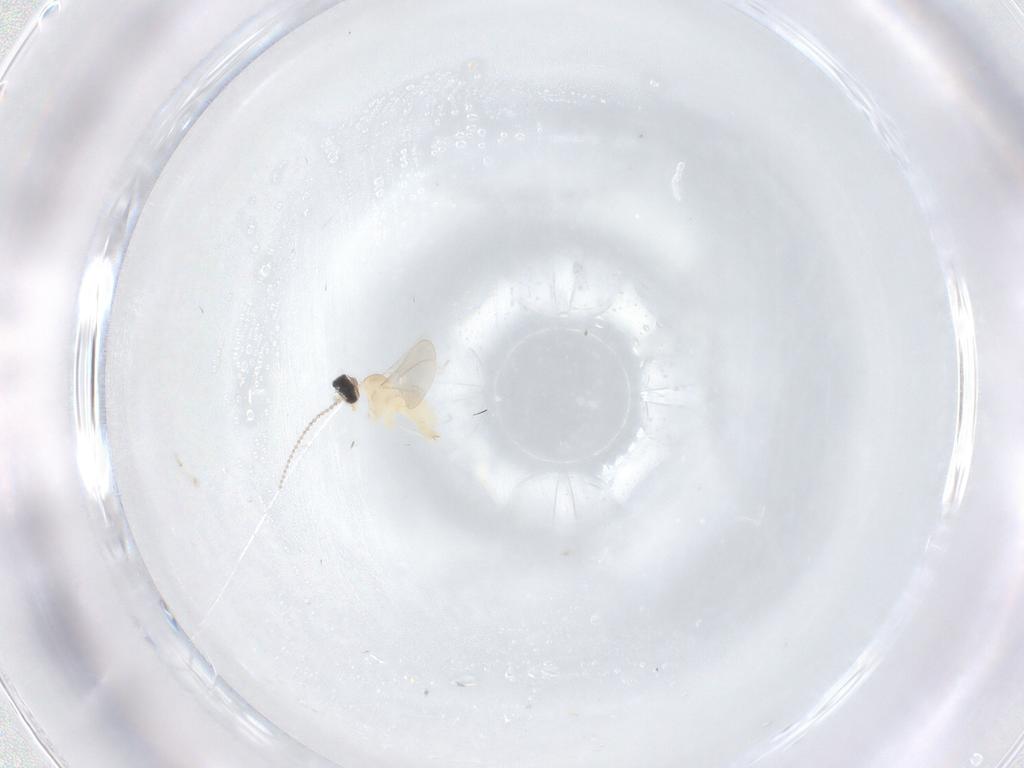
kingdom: Animalia
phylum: Arthropoda
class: Insecta
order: Diptera
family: Cecidomyiidae
